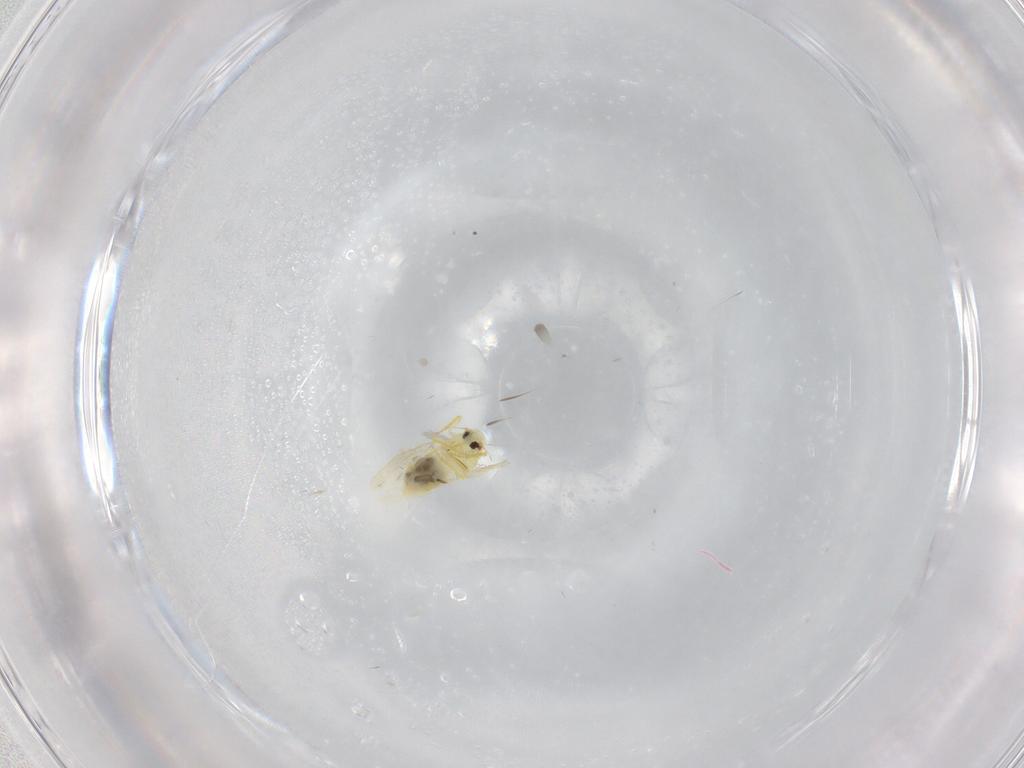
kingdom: Animalia
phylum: Arthropoda
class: Insecta
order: Hemiptera
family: Aleyrodidae
